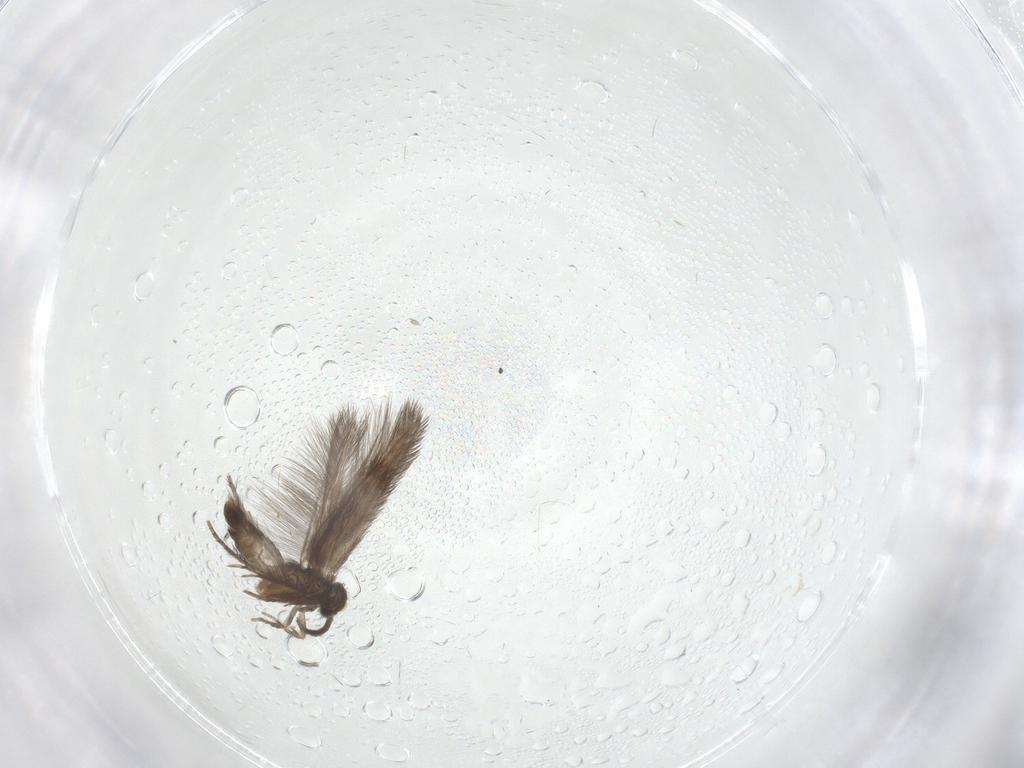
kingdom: Animalia
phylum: Arthropoda
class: Insecta
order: Trichoptera
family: Hydroptilidae
